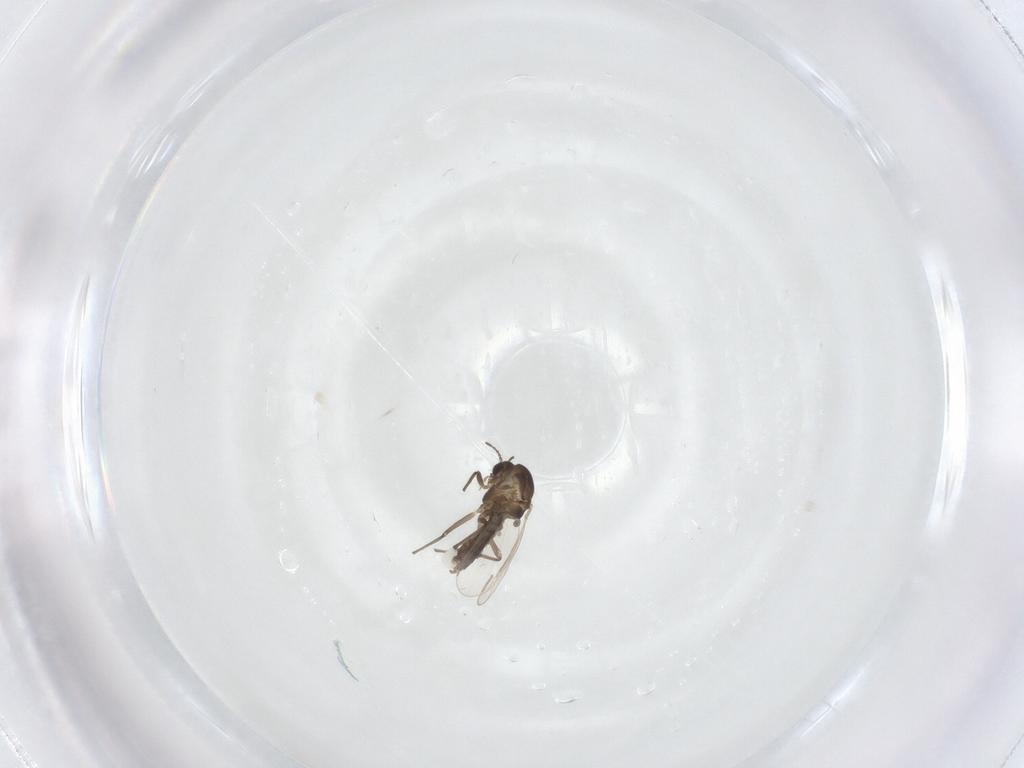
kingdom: Animalia
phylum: Arthropoda
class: Insecta
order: Diptera
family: Chironomidae
